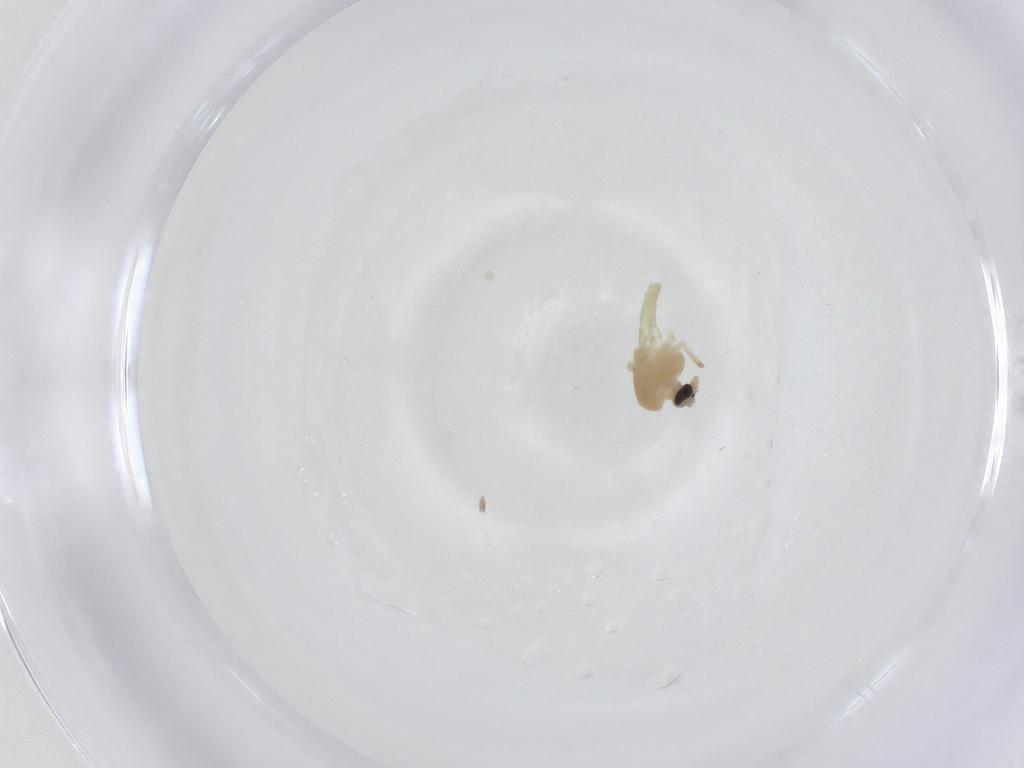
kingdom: Animalia
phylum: Arthropoda
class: Insecta
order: Diptera
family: Chironomidae
